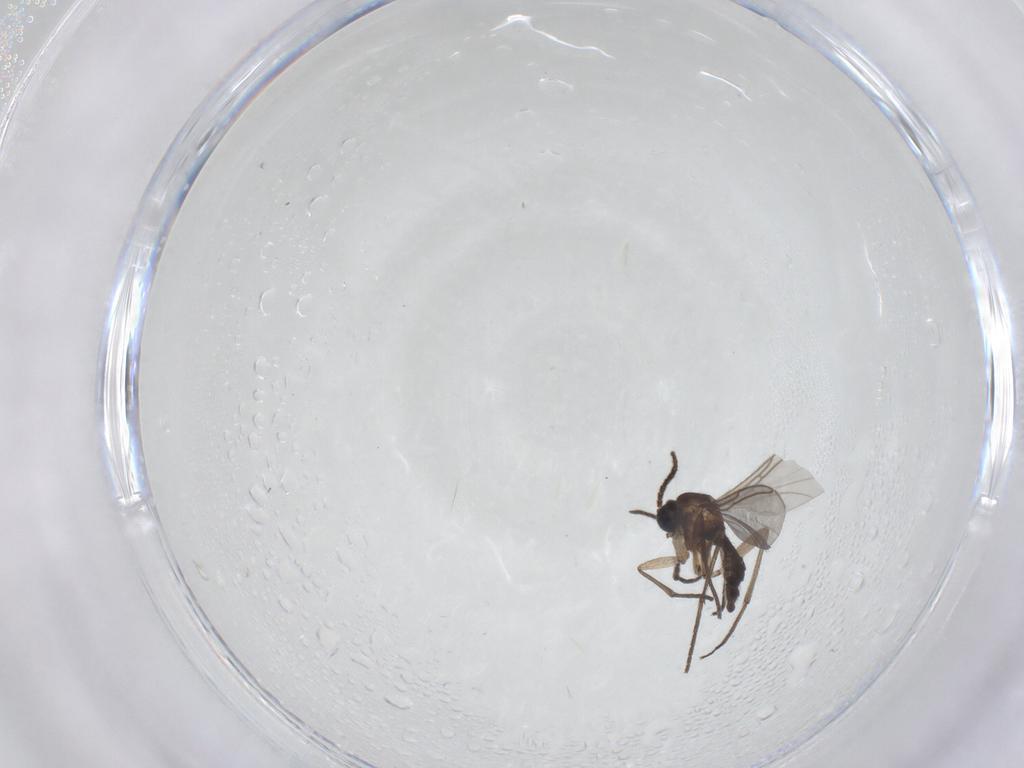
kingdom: Animalia
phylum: Arthropoda
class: Insecta
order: Diptera
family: Sciaridae
